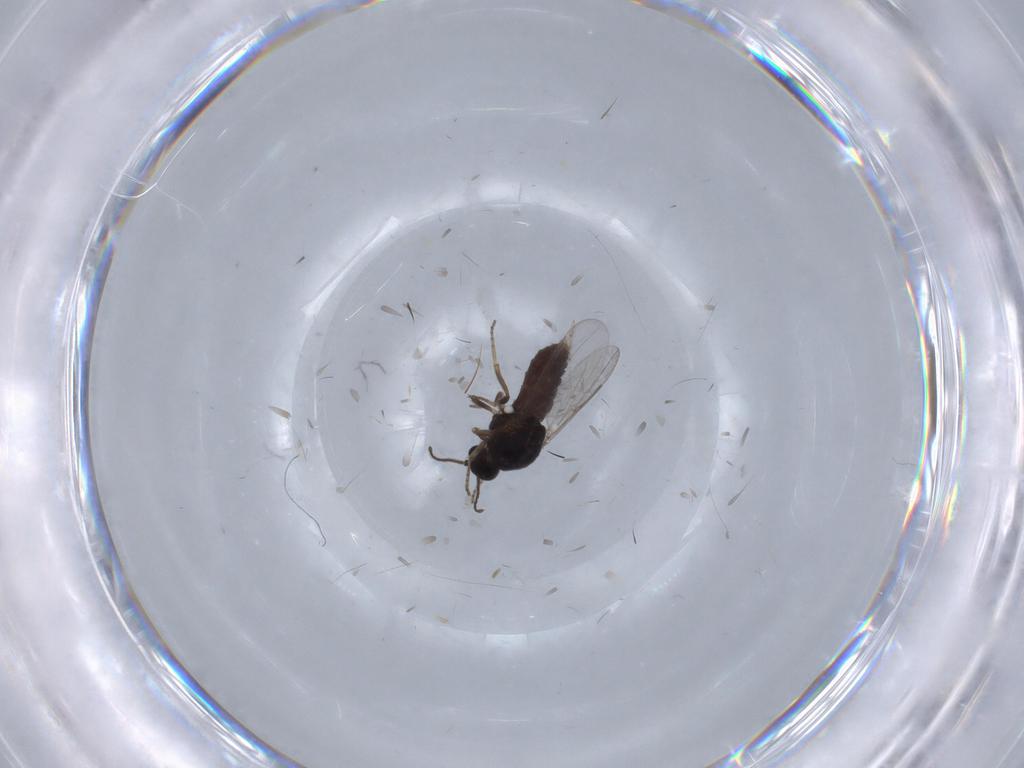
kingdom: Animalia
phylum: Arthropoda
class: Insecta
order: Diptera
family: Ceratopogonidae
